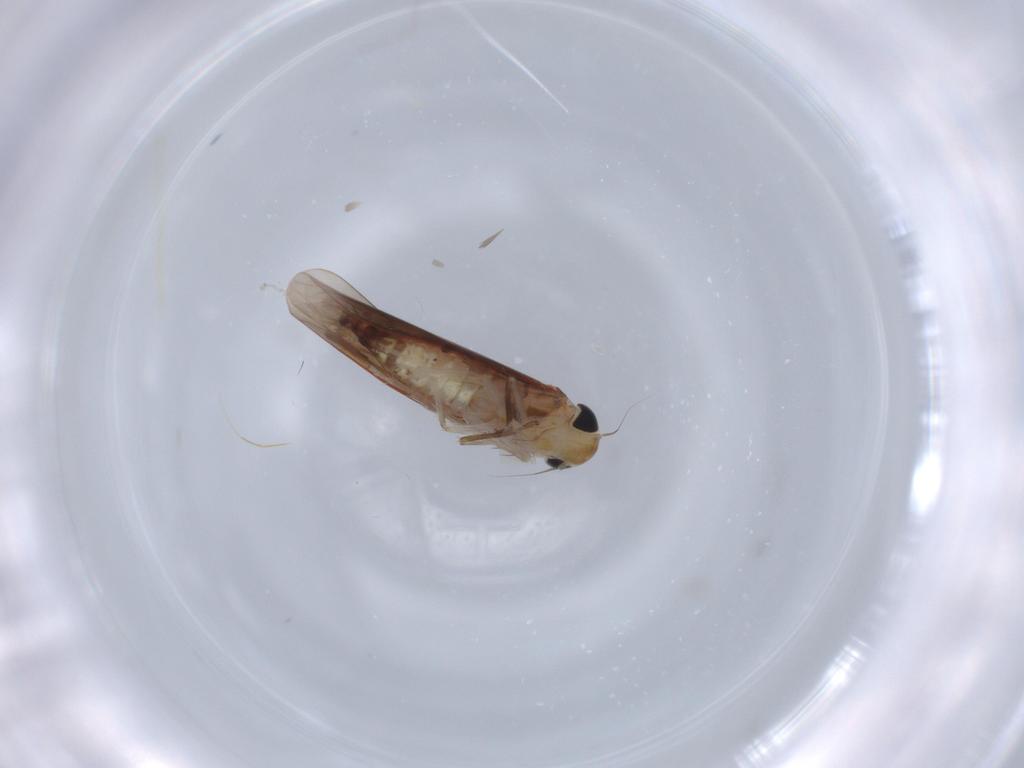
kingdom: Animalia
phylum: Arthropoda
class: Insecta
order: Hemiptera
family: Cicadellidae
